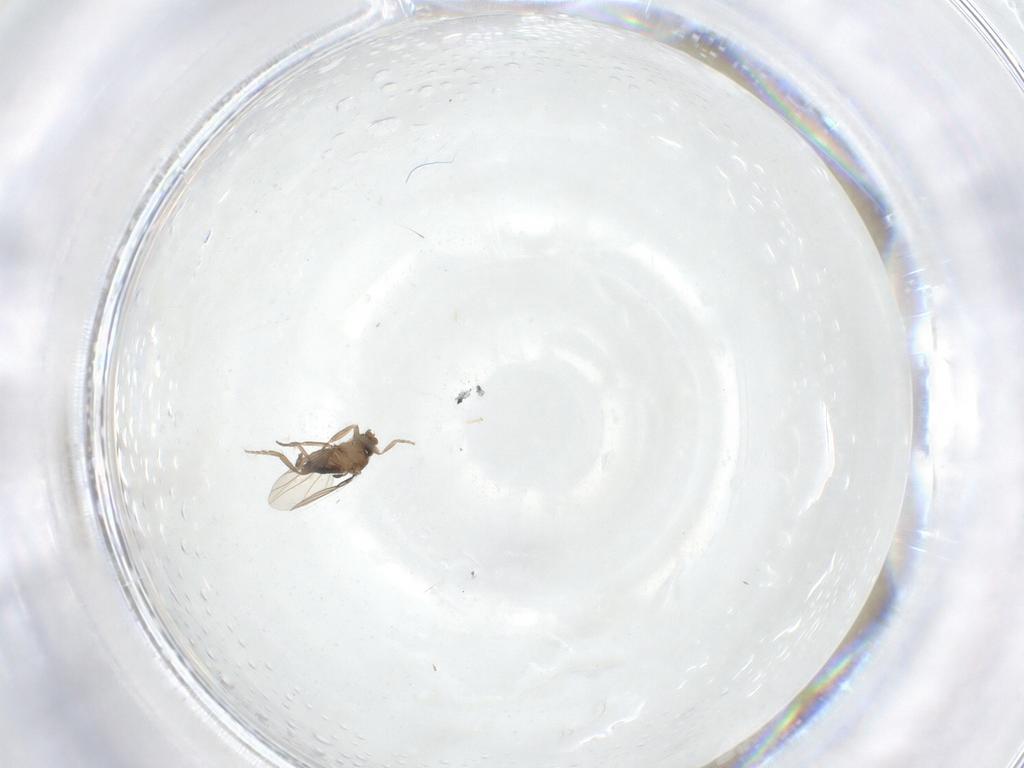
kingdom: Animalia
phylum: Arthropoda
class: Insecta
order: Diptera
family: Phoridae
